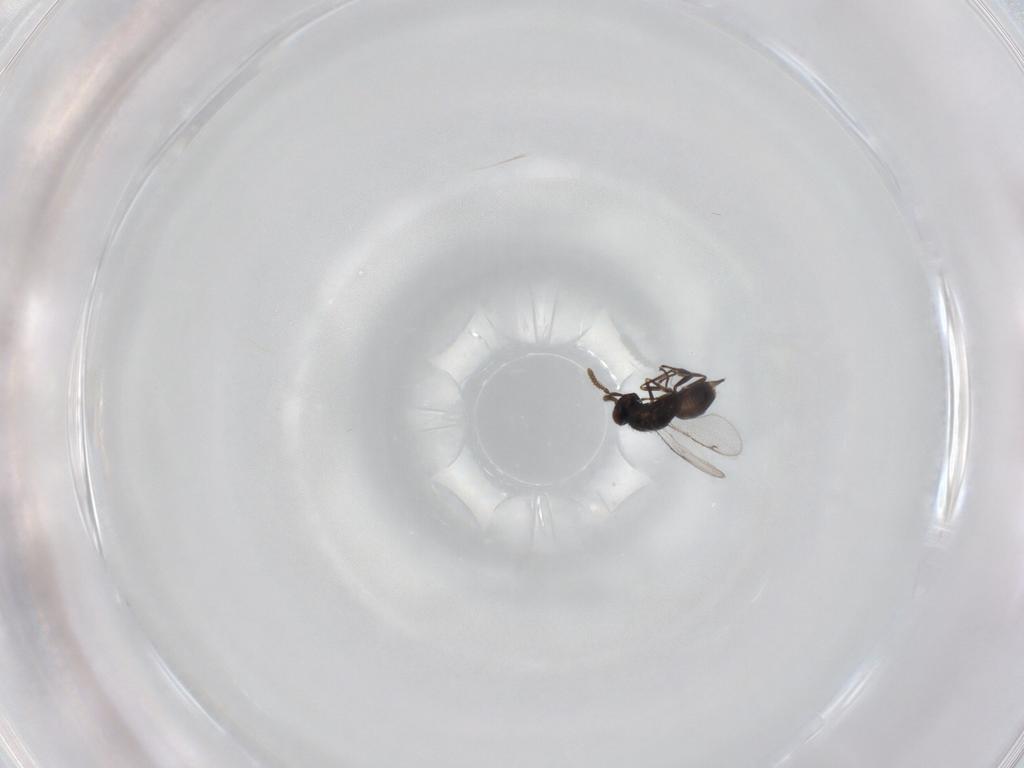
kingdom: Animalia
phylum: Arthropoda
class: Insecta
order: Hymenoptera
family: Pirenidae
